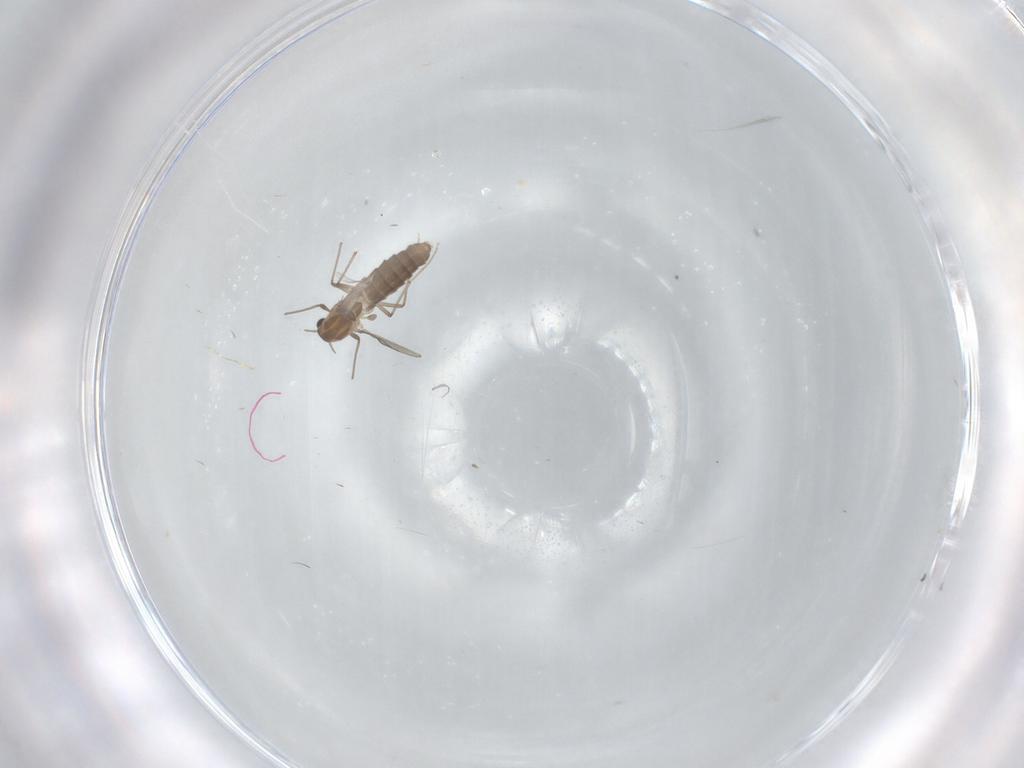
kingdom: Animalia
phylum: Arthropoda
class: Insecta
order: Diptera
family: Chironomidae
